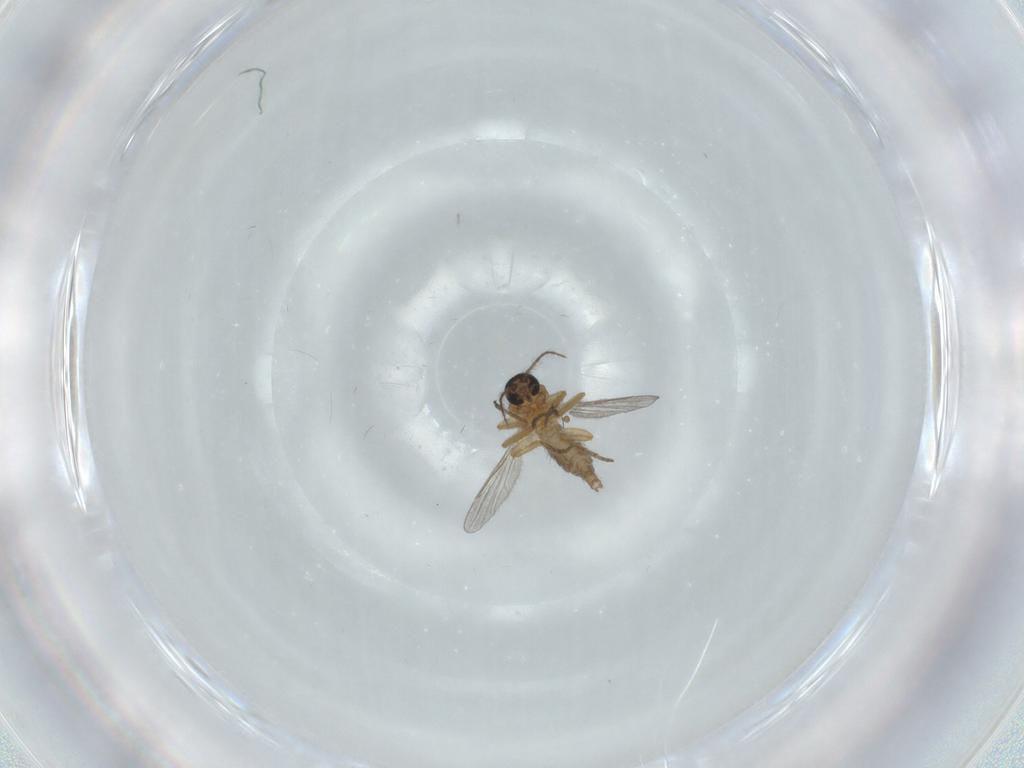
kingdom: Animalia
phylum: Arthropoda
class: Insecta
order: Diptera
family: Ceratopogonidae
